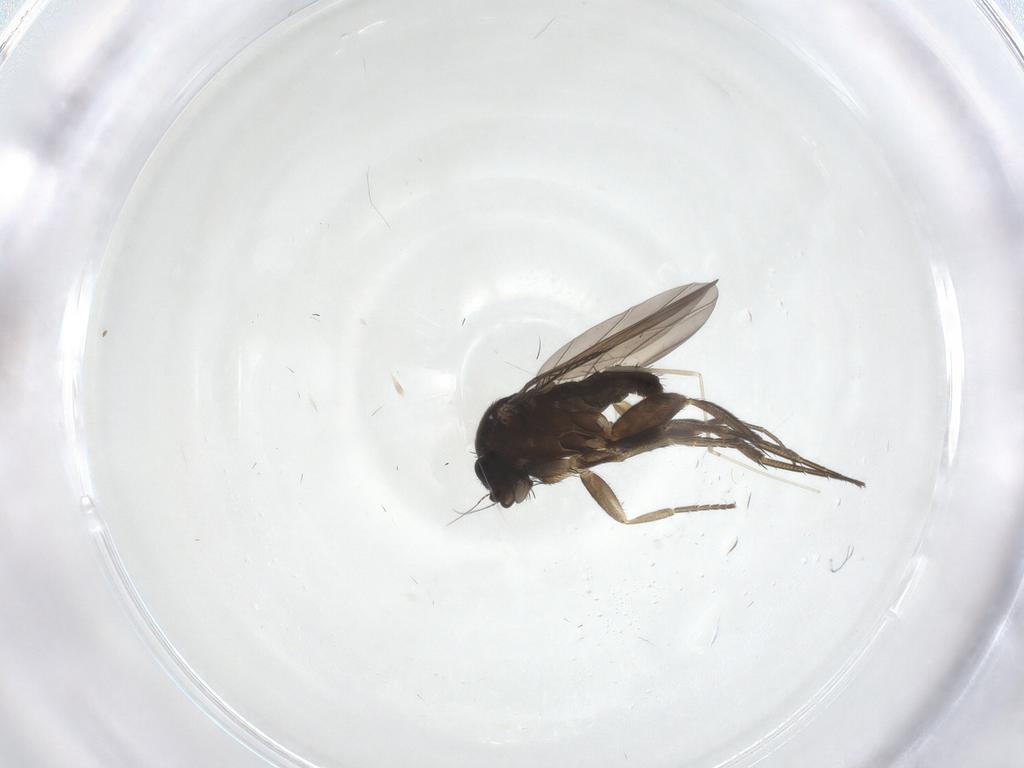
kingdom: Animalia
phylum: Arthropoda
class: Insecta
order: Diptera
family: Phoridae
